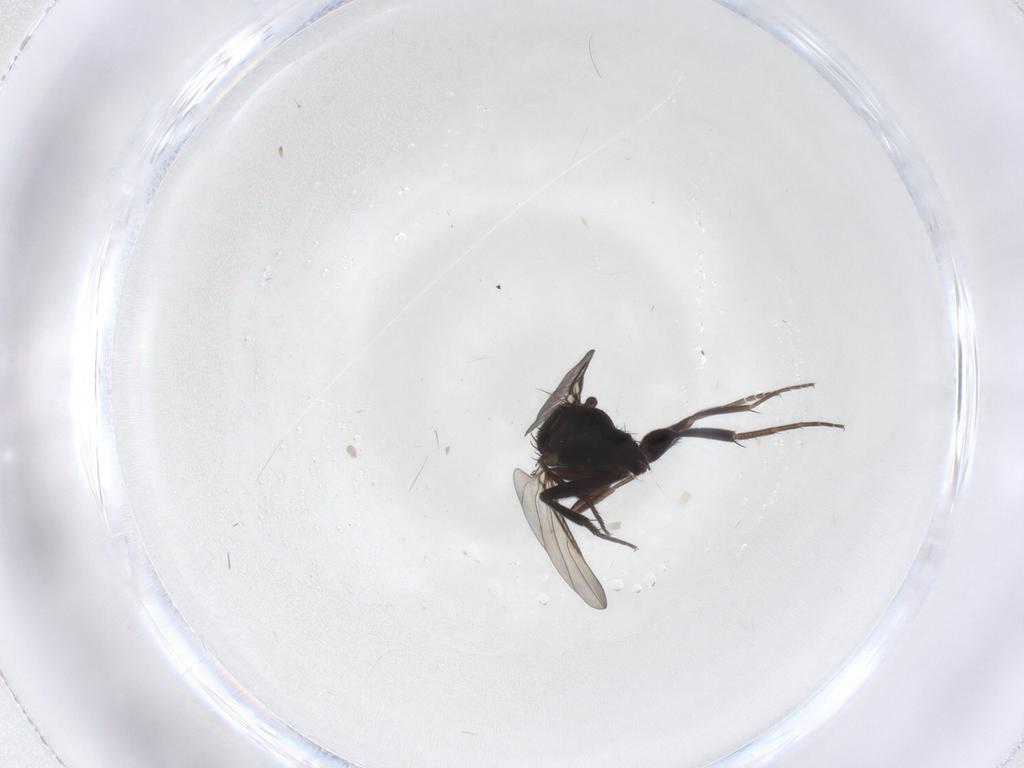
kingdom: Animalia
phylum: Arthropoda
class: Insecta
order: Diptera
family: Phoridae
